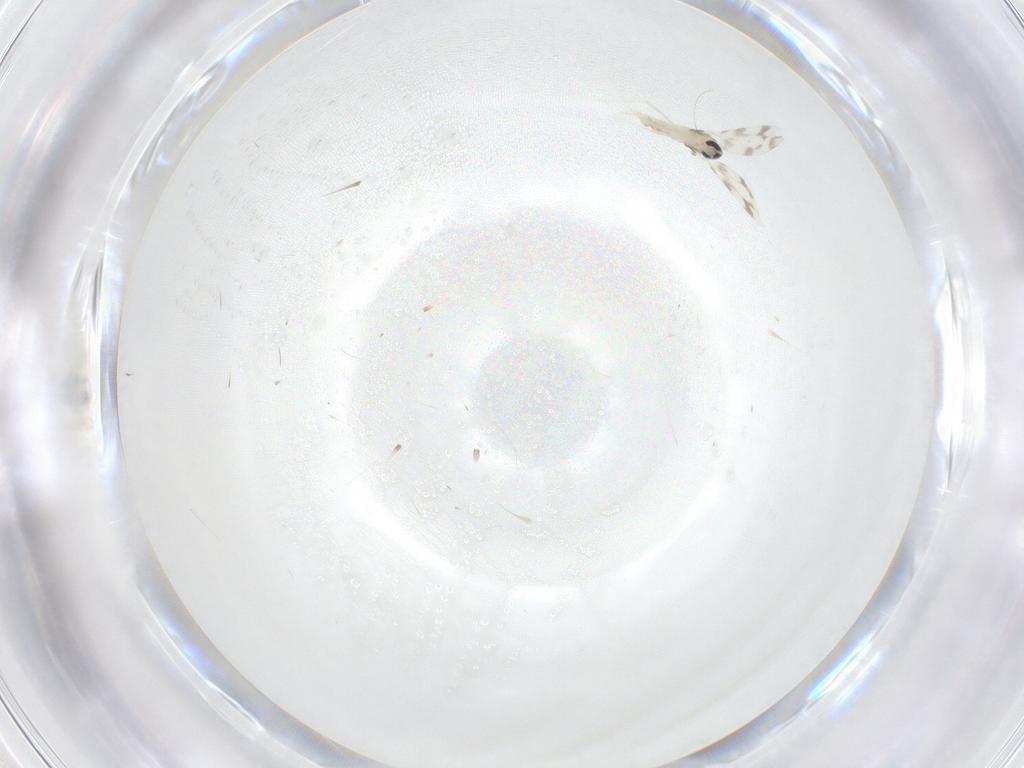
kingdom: Animalia
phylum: Arthropoda
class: Insecta
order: Diptera
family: Cecidomyiidae
